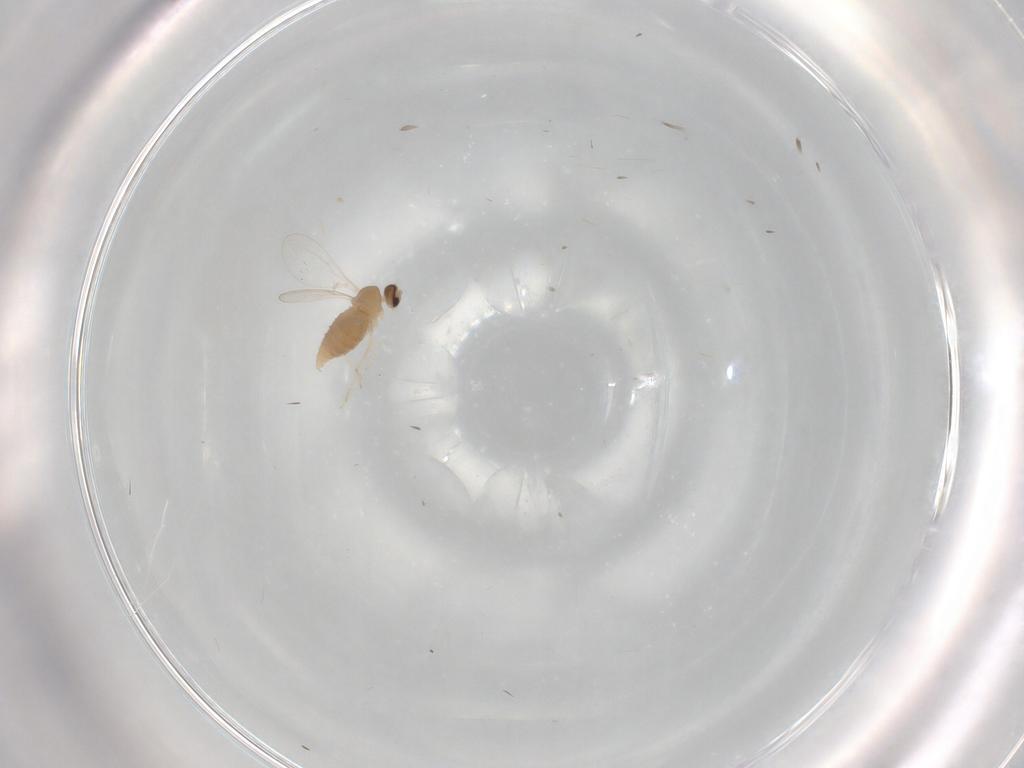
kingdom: Animalia
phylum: Arthropoda
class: Insecta
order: Diptera
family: Cecidomyiidae
